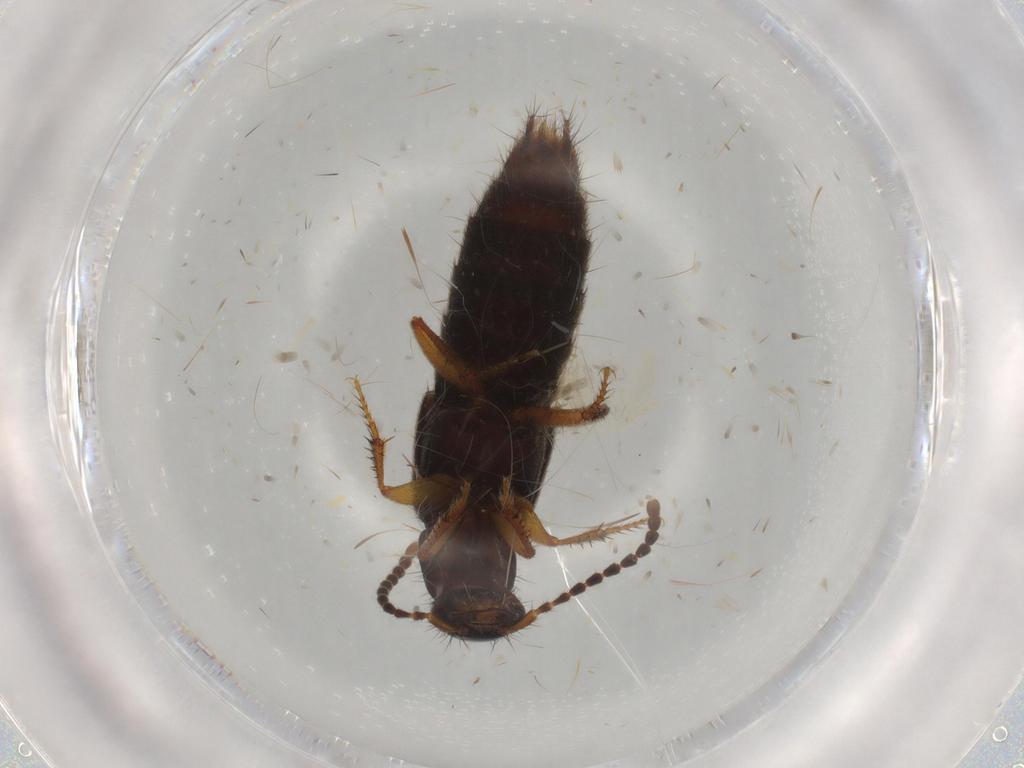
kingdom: Animalia
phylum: Arthropoda
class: Insecta
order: Coleoptera
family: Staphylinidae
